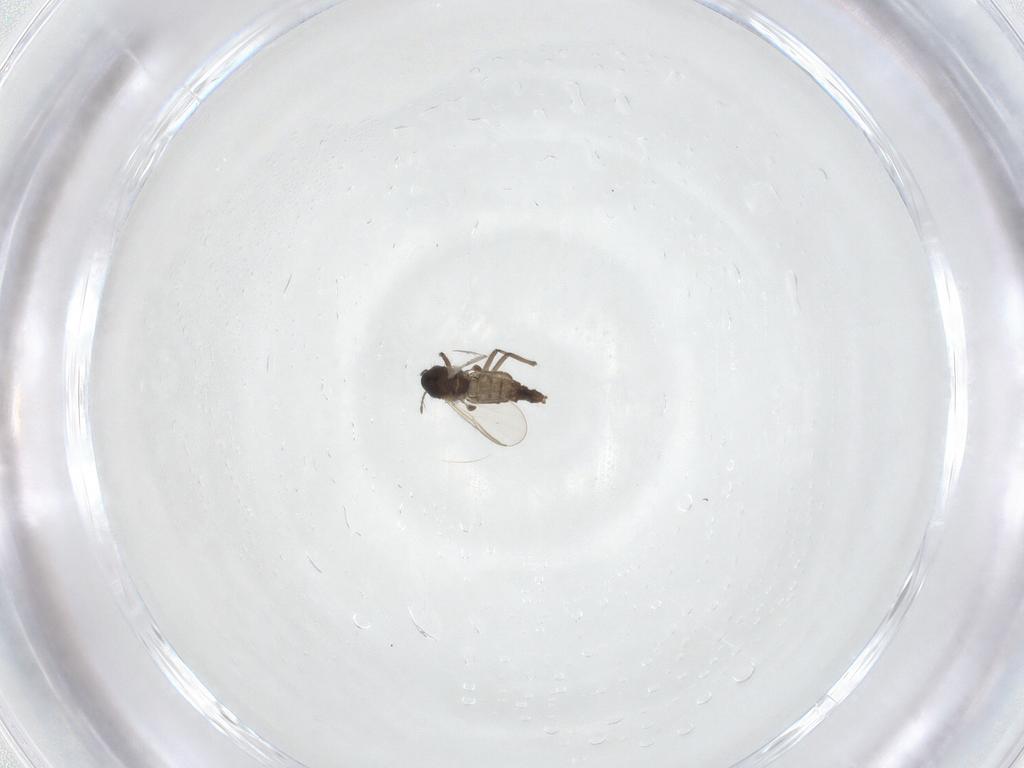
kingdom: Animalia
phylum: Arthropoda
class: Insecta
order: Diptera
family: Chironomidae
